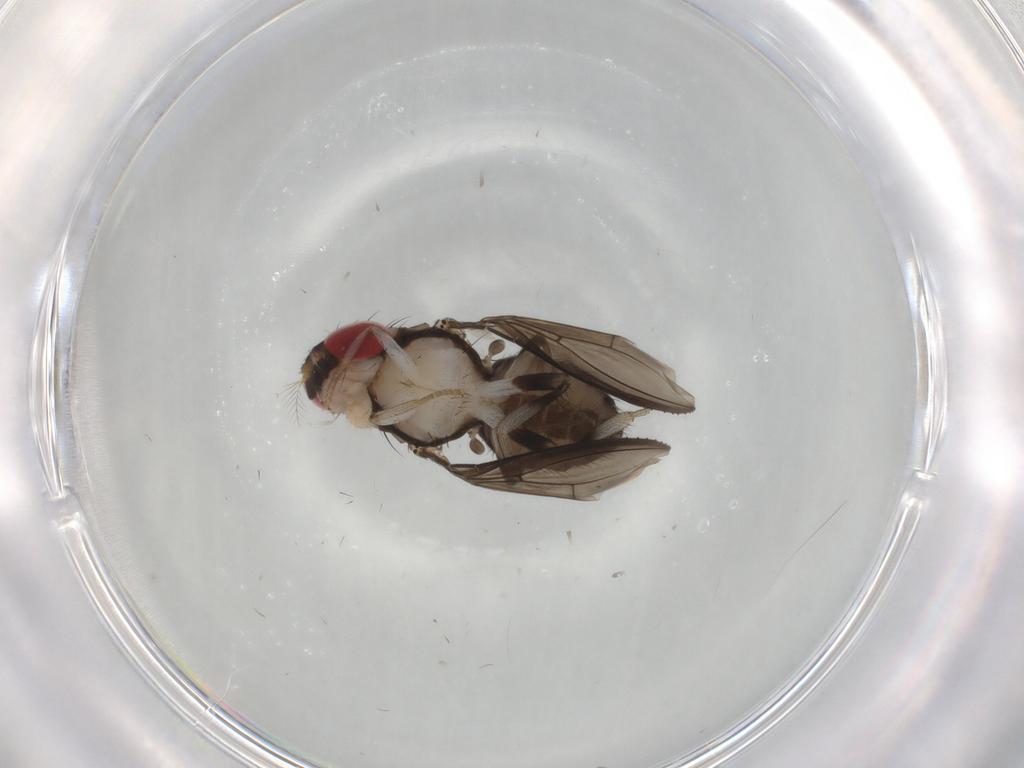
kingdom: Animalia
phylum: Arthropoda
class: Insecta
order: Diptera
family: Drosophilidae
